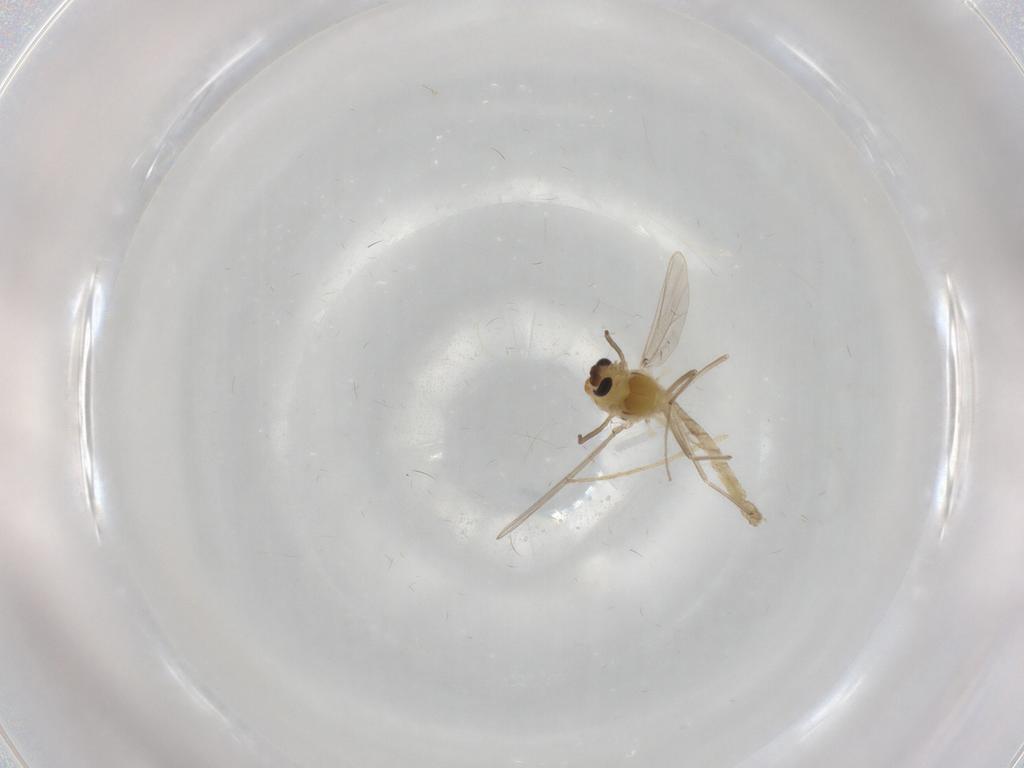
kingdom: Animalia
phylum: Arthropoda
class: Insecta
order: Diptera
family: Chironomidae
